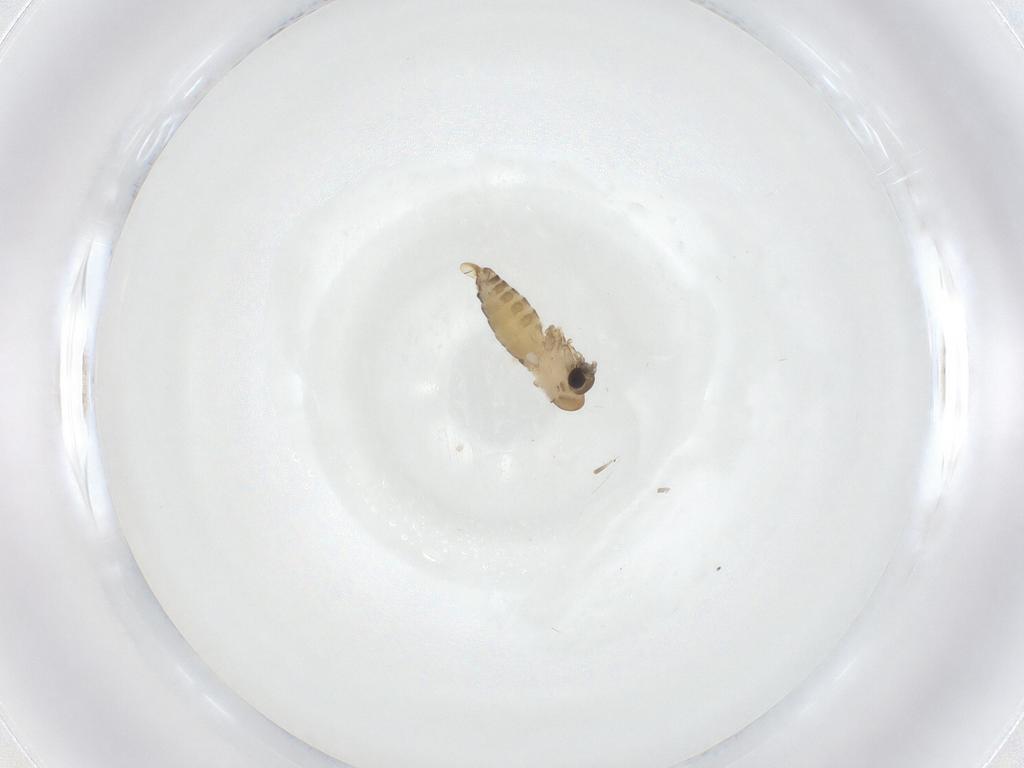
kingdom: Animalia
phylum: Arthropoda
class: Insecta
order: Diptera
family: Psychodidae
